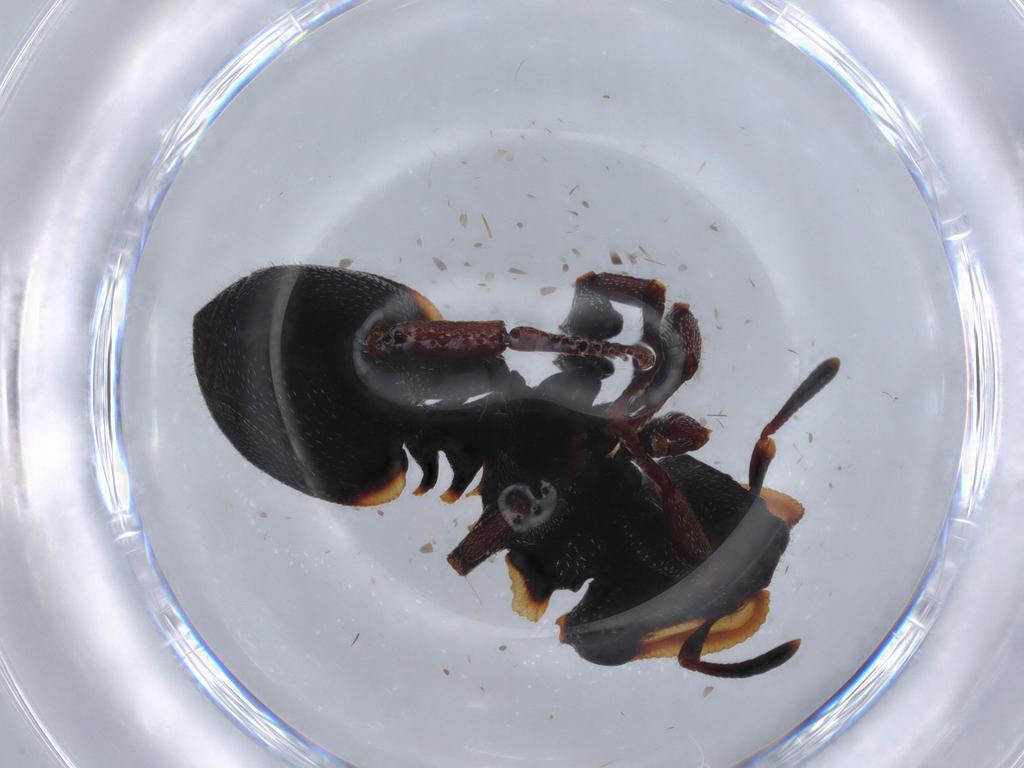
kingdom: Animalia
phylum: Arthropoda
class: Insecta
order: Hymenoptera
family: Formicidae
